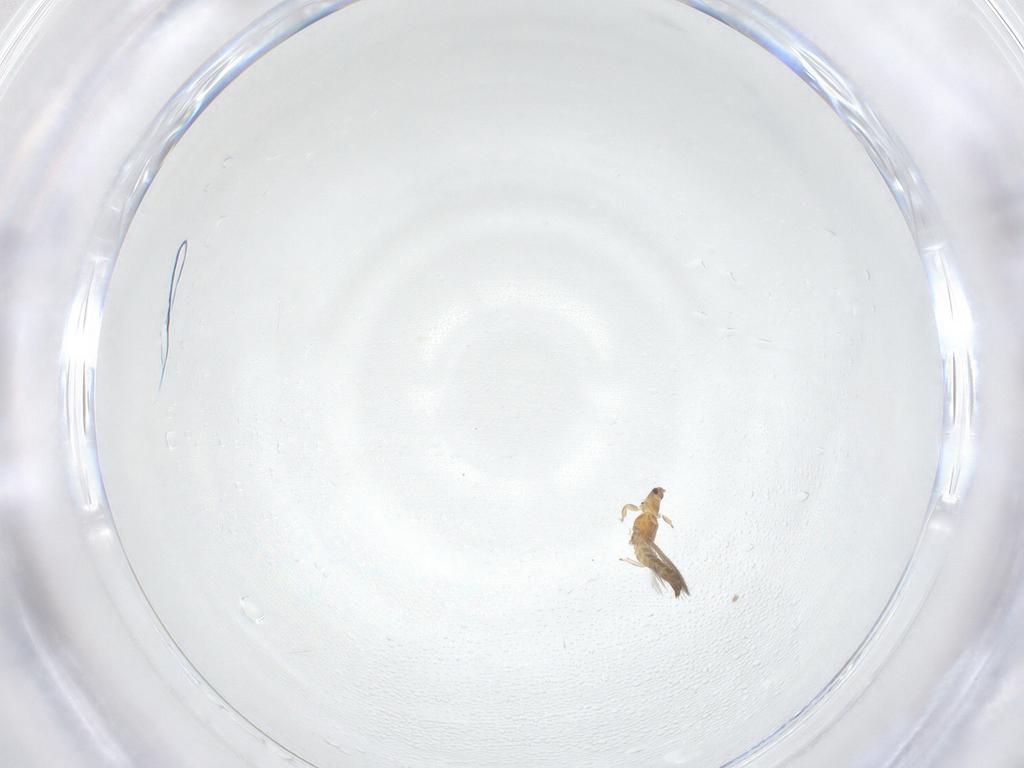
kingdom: Animalia
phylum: Arthropoda
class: Insecta
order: Thysanoptera
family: Thripidae
